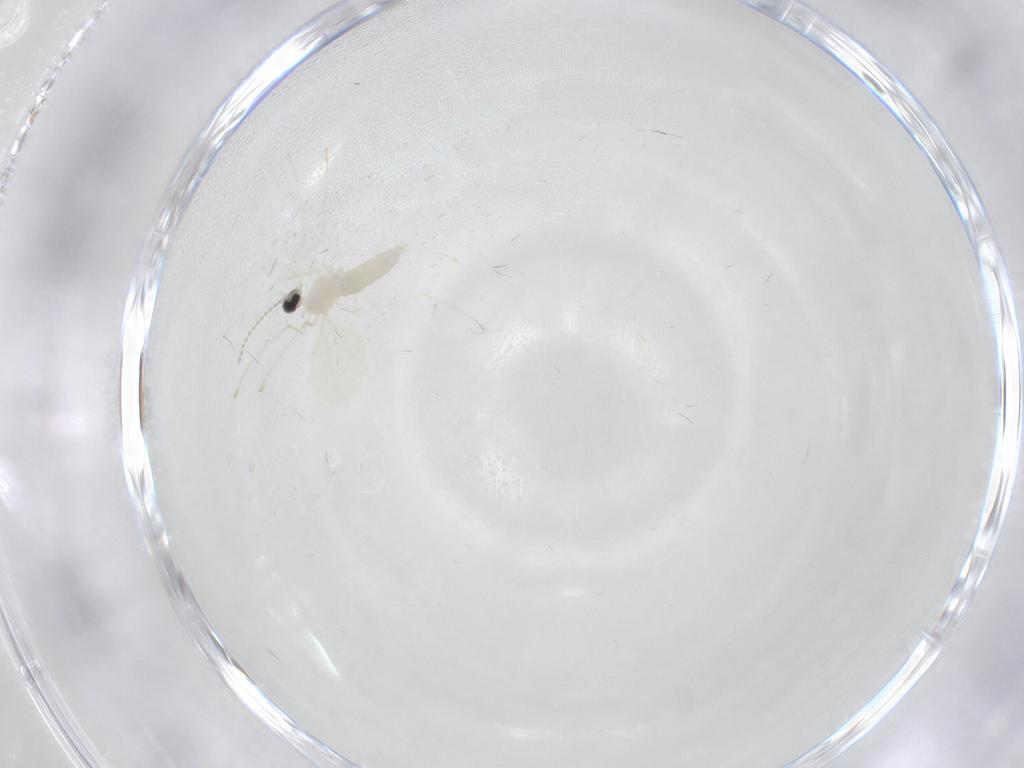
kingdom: Animalia
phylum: Arthropoda
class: Insecta
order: Diptera
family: Cecidomyiidae
